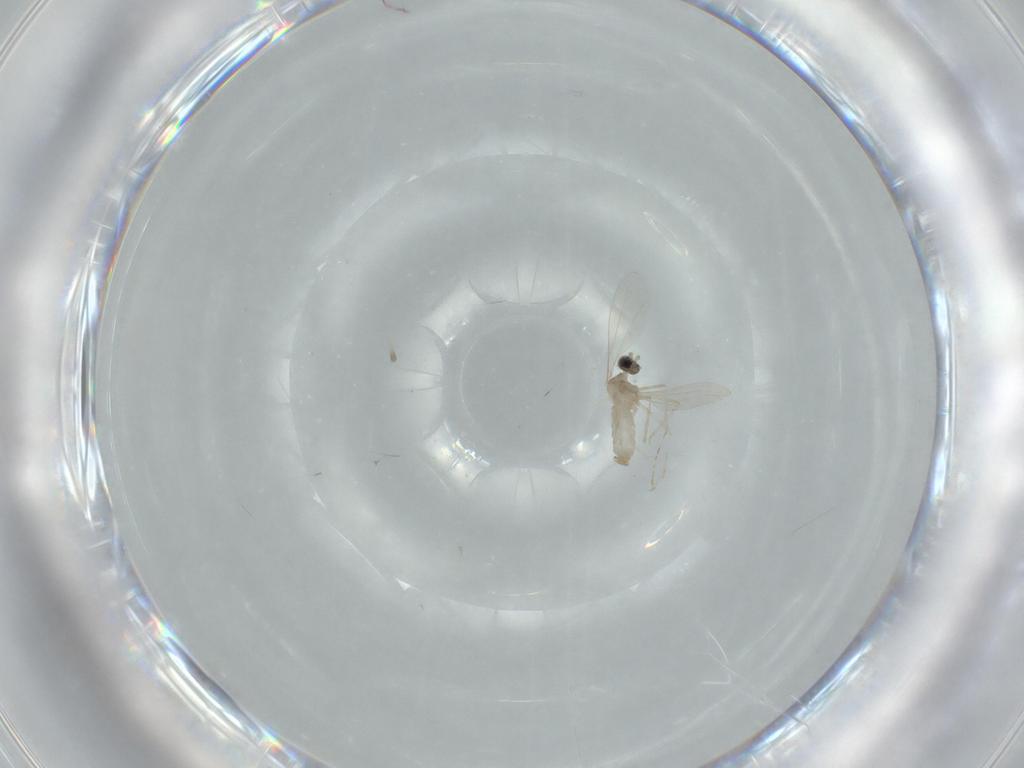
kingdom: Animalia
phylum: Arthropoda
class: Insecta
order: Diptera
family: Cecidomyiidae
